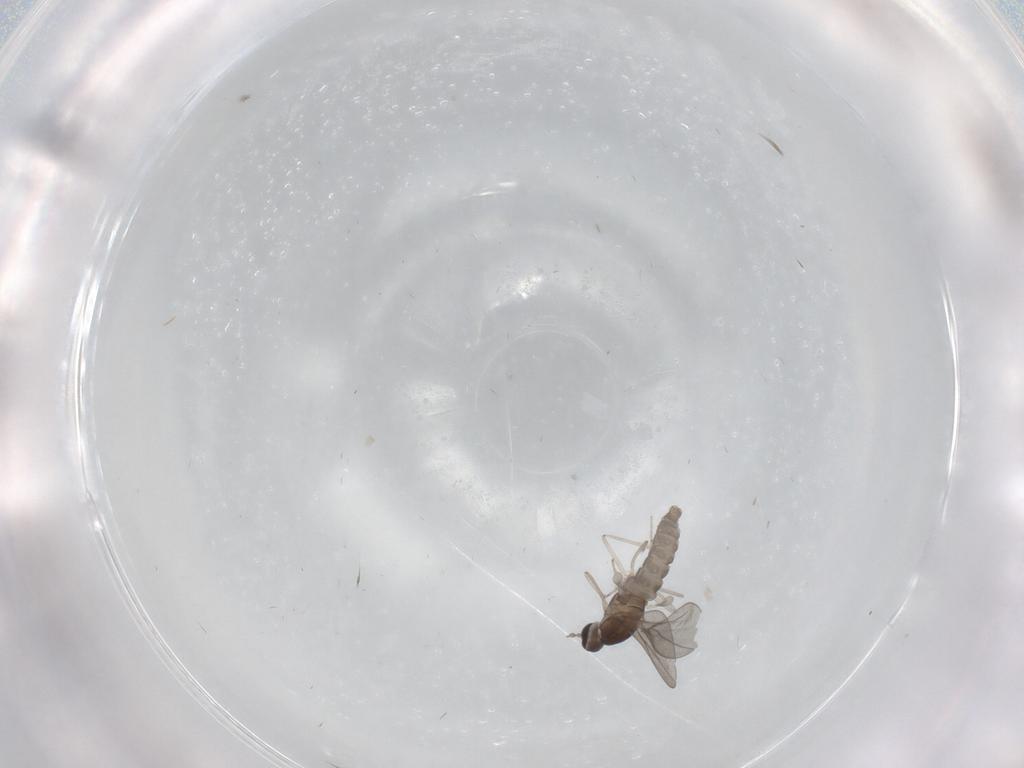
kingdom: Animalia
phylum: Arthropoda
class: Insecta
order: Diptera
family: Cecidomyiidae
